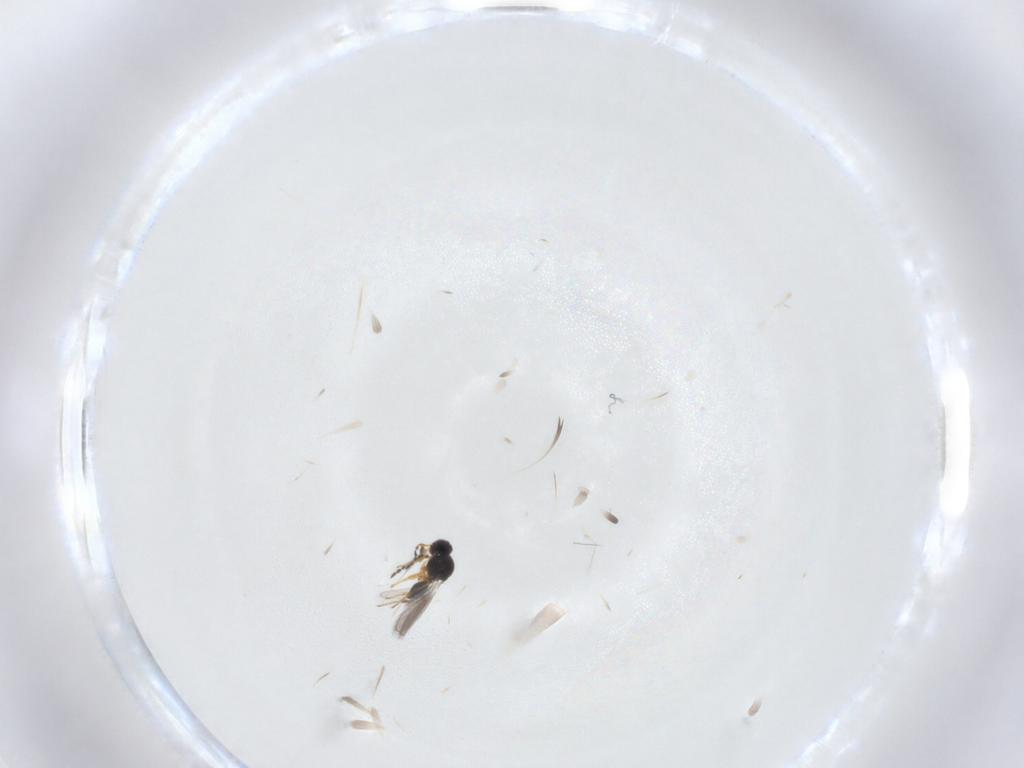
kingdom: Animalia
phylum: Arthropoda
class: Insecta
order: Hymenoptera
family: Platygastridae
